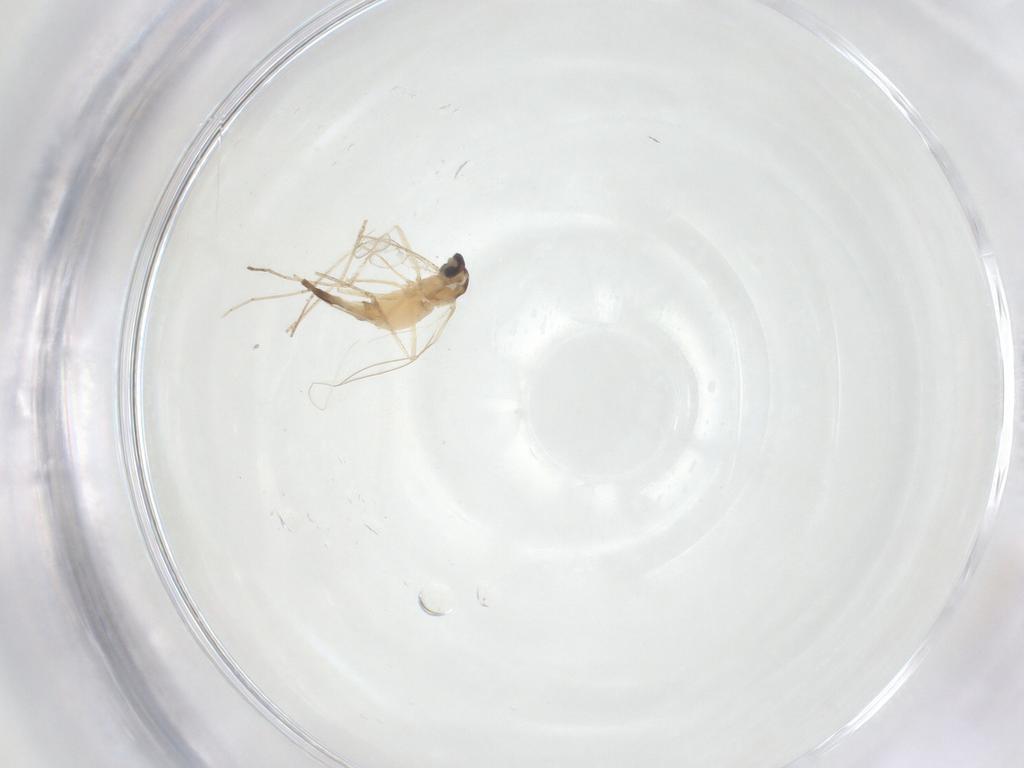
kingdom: Animalia
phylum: Arthropoda
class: Insecta
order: Diptera
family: Cecidomyiidae
